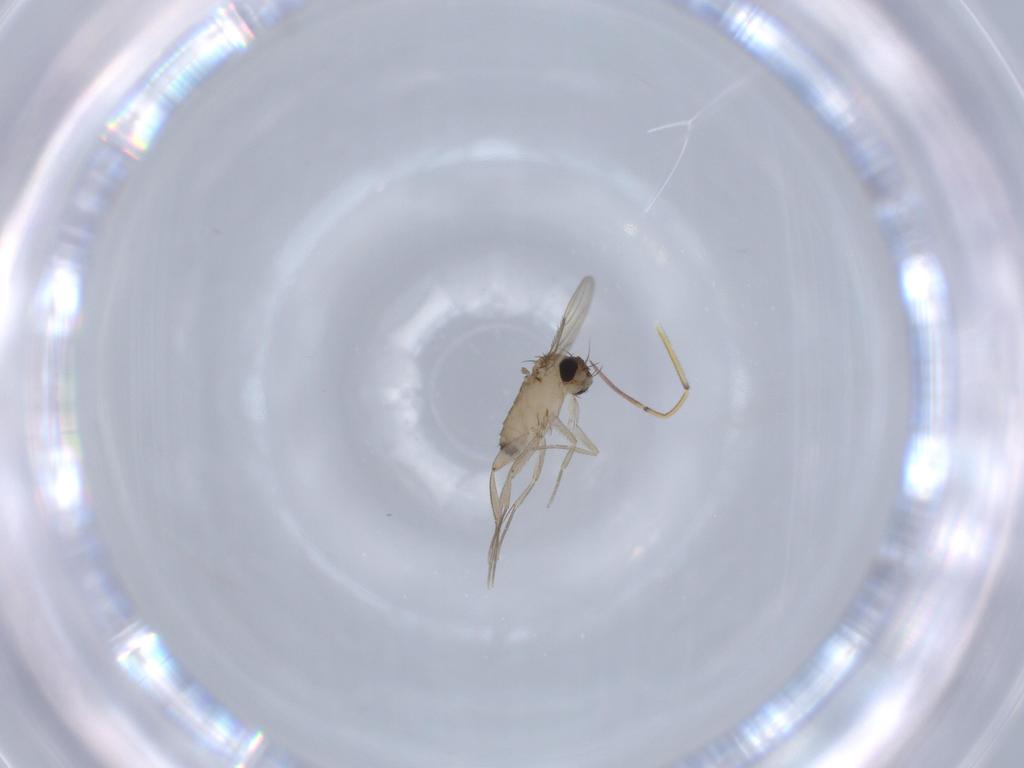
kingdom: Animalia
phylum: Arthropoda
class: Insecta
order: Diptera
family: Phoridae
